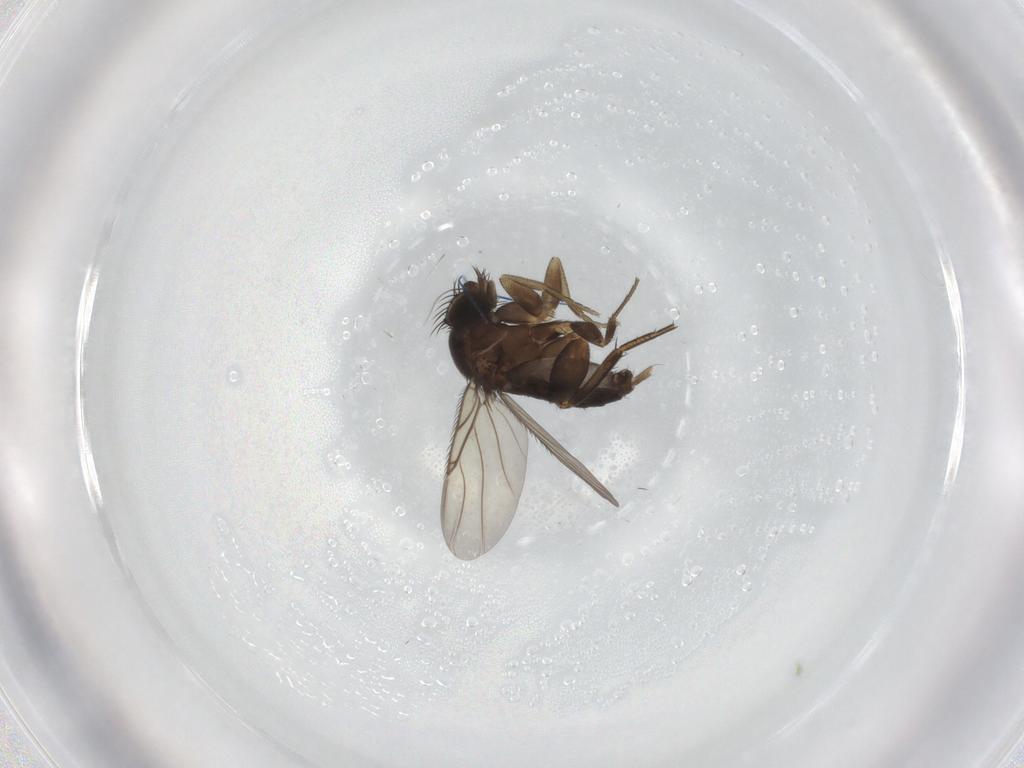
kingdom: Animalia
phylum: Arthropoda
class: Insecta
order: Diptera
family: Phoridae
